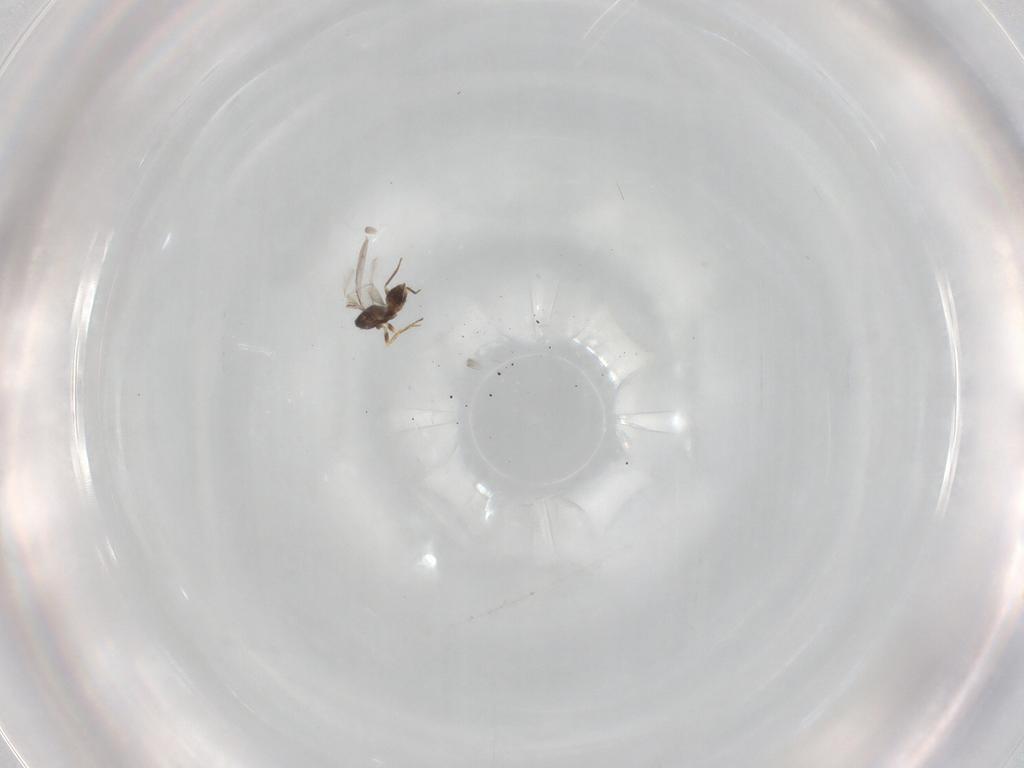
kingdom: Animalia
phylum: Arthropoda
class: Insecta
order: Hymenoptera
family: Mymaridae
